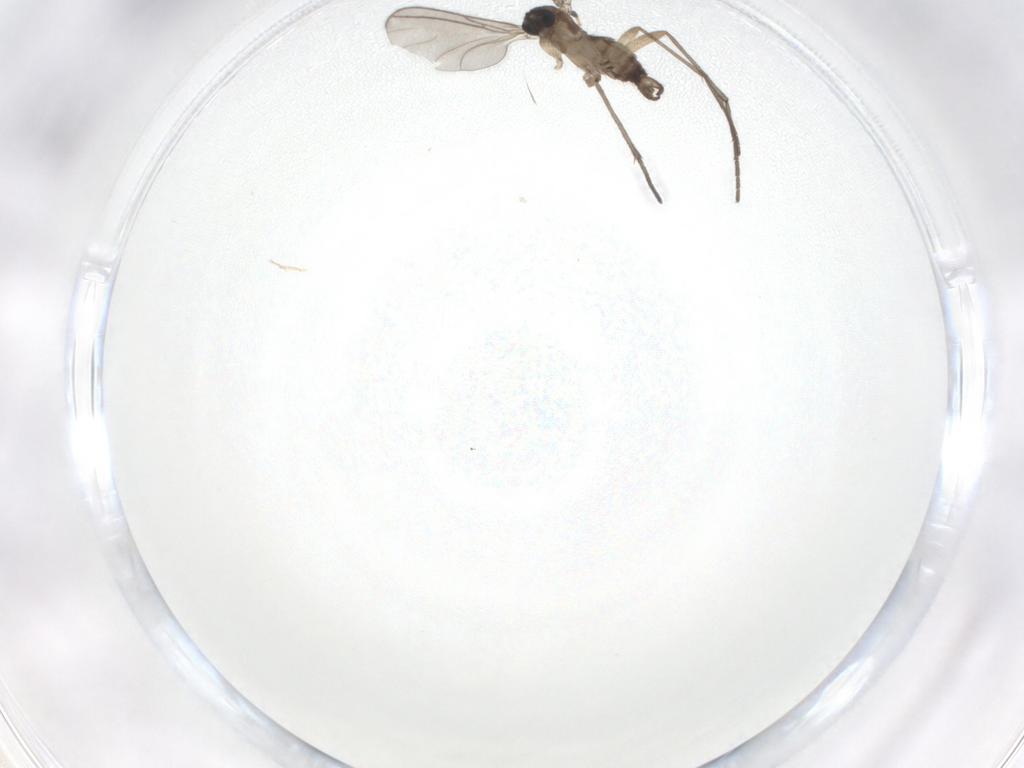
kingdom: Animalia
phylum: Arthropoda
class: Insecta
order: Diptera
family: Sciaridae
